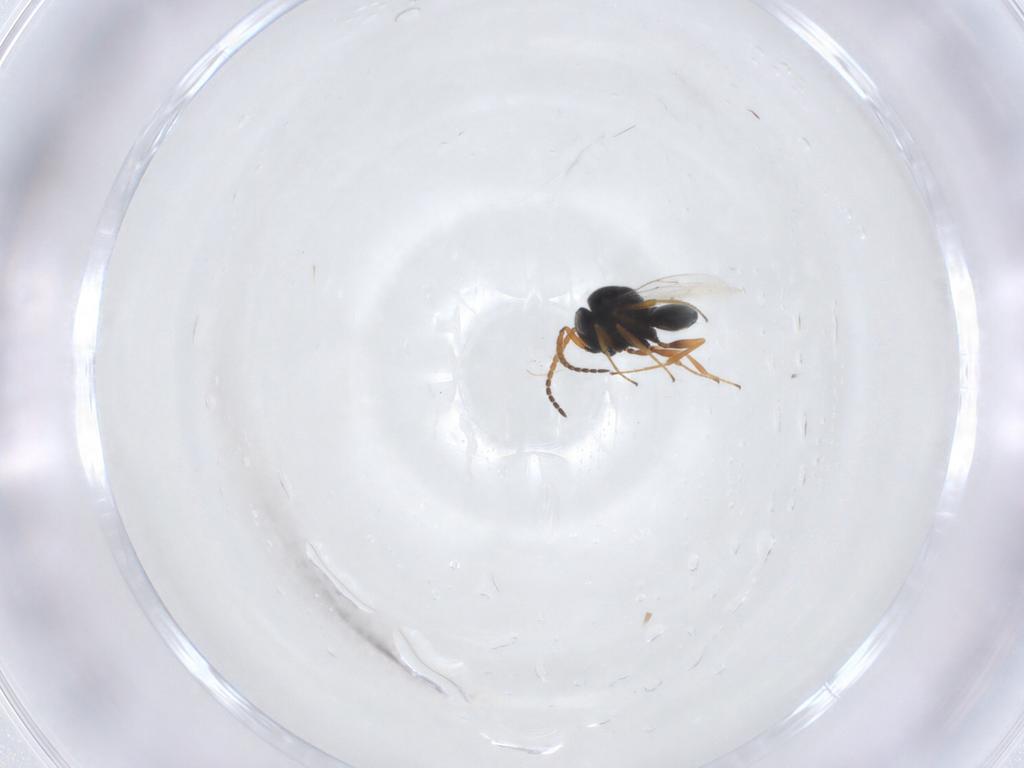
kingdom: Animalia
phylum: Arthropoda
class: Insecta
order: Hymenoptera
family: Scelionidae
